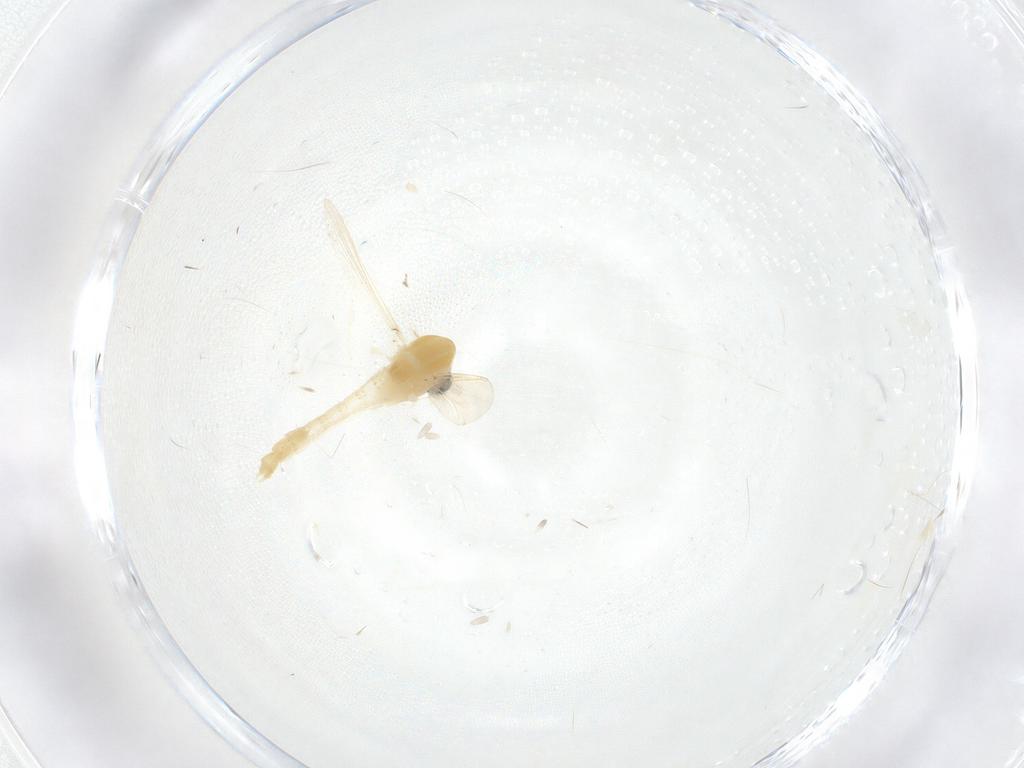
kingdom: Animalia
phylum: Arthropoda
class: Insecta
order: Diptera
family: Chironomidae
